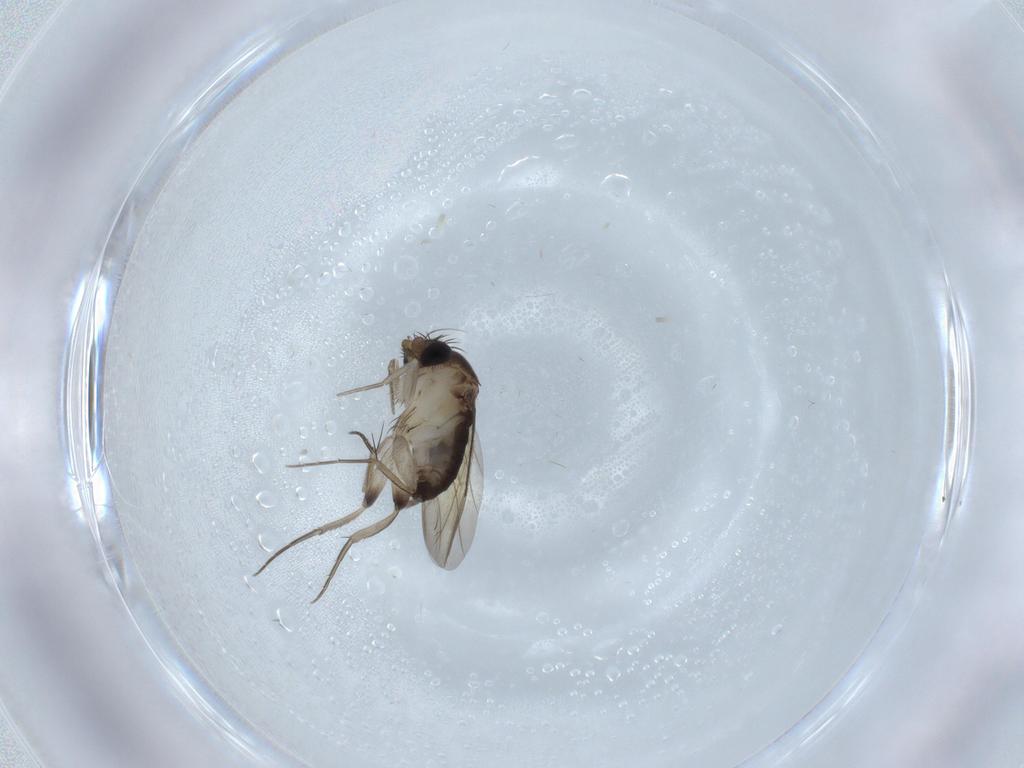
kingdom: Animalia
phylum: Arthropoda
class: Insecta
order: Diptera
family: Phoridae
